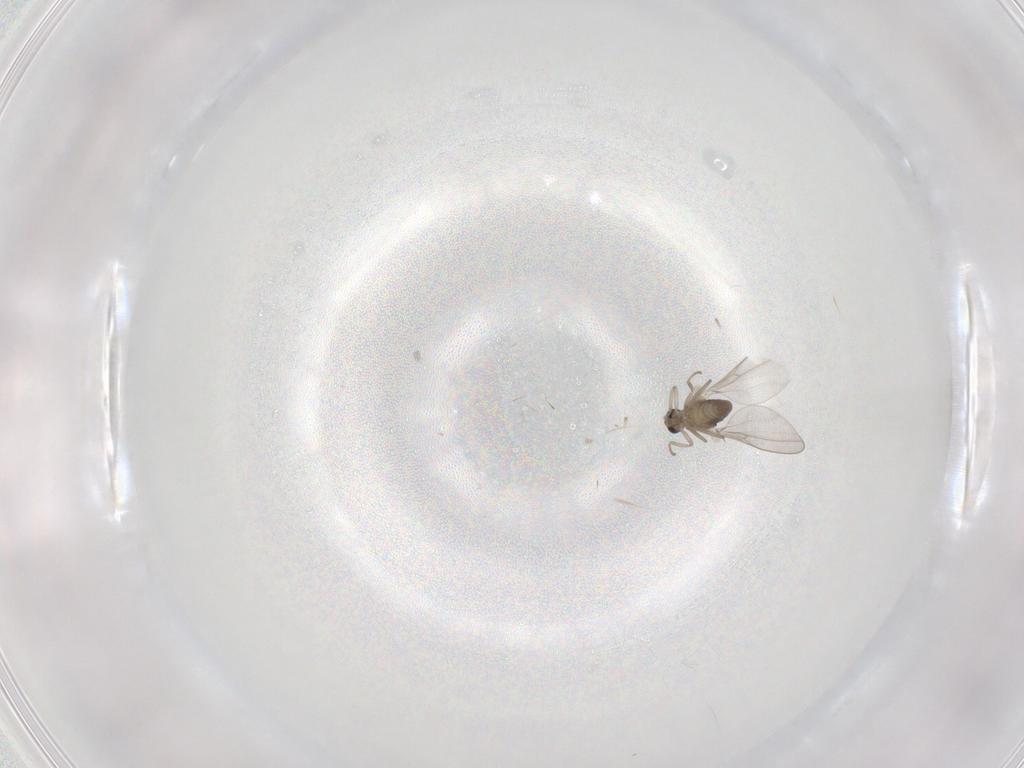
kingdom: Animalia
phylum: Arthropoda
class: Insecta
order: Diptera
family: Cecidomyiidae
